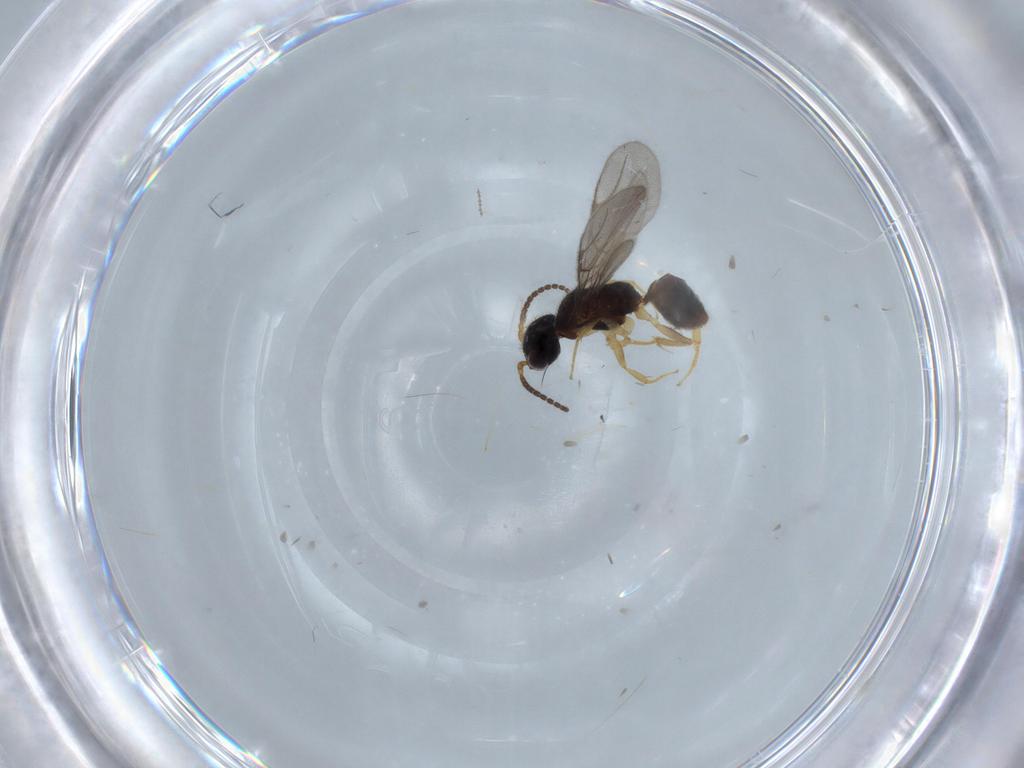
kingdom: Animalia
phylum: Arthropoda
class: Insecta
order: Hymenoptera
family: Bethylidae
